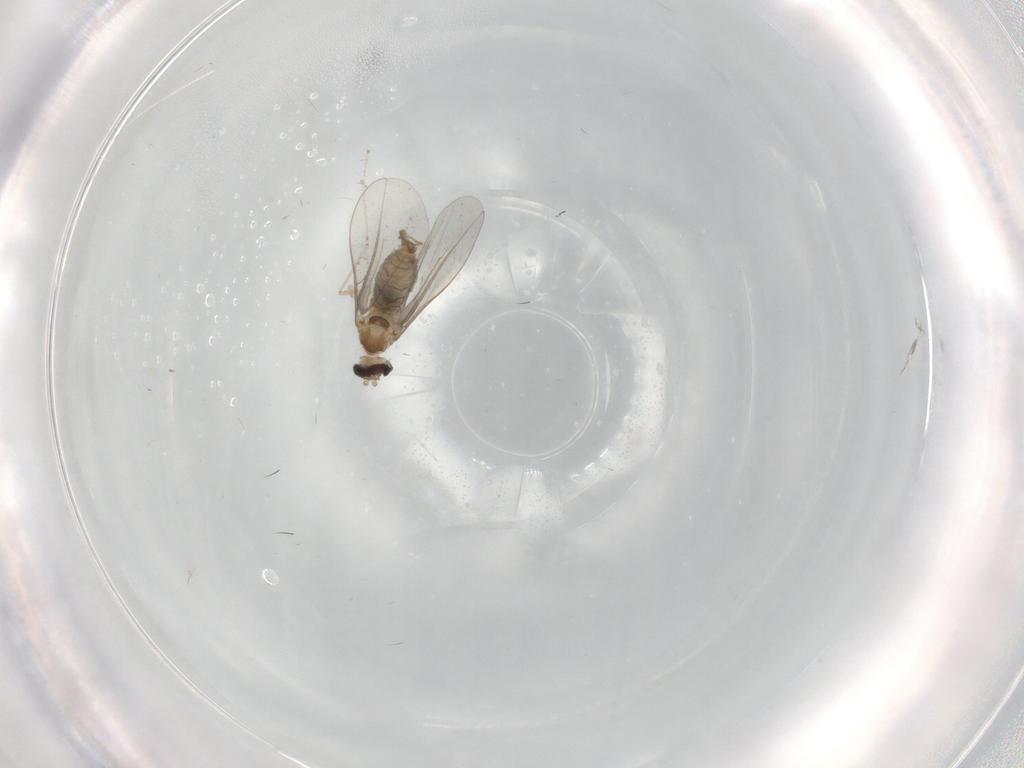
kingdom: Animalia
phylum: Arthropoda
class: Insecta
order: Diptera
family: Cecidomyiidae
